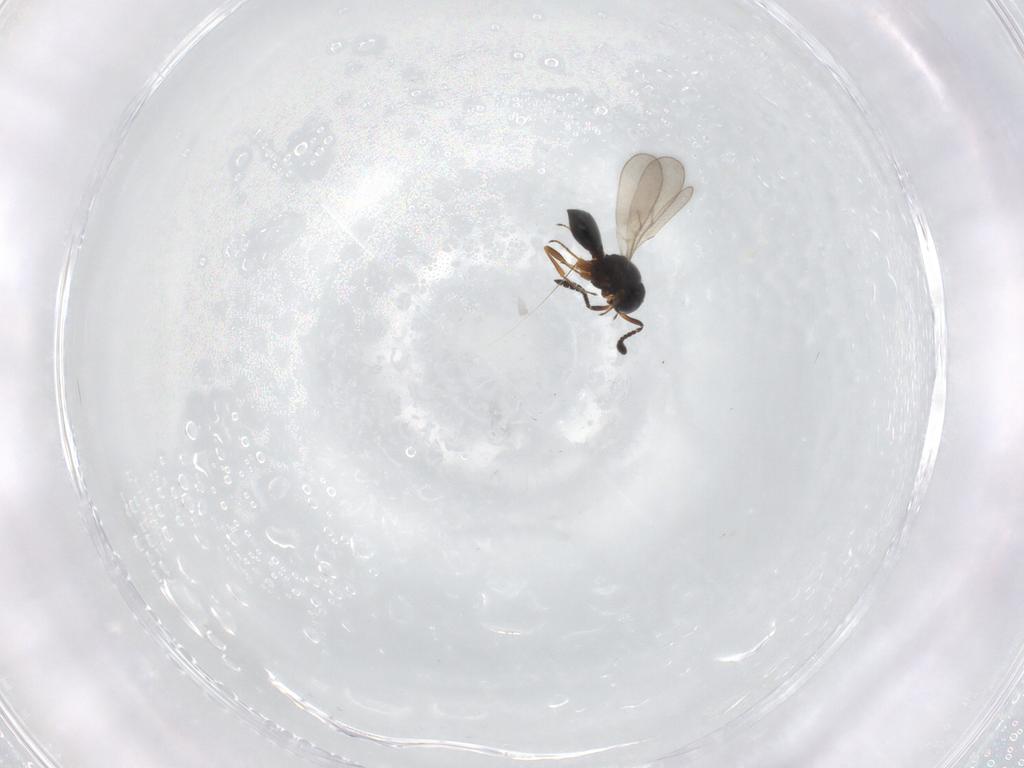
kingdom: Animalia
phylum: Arthropoda
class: Insecta
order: Hymenoptera
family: Scelionidae
